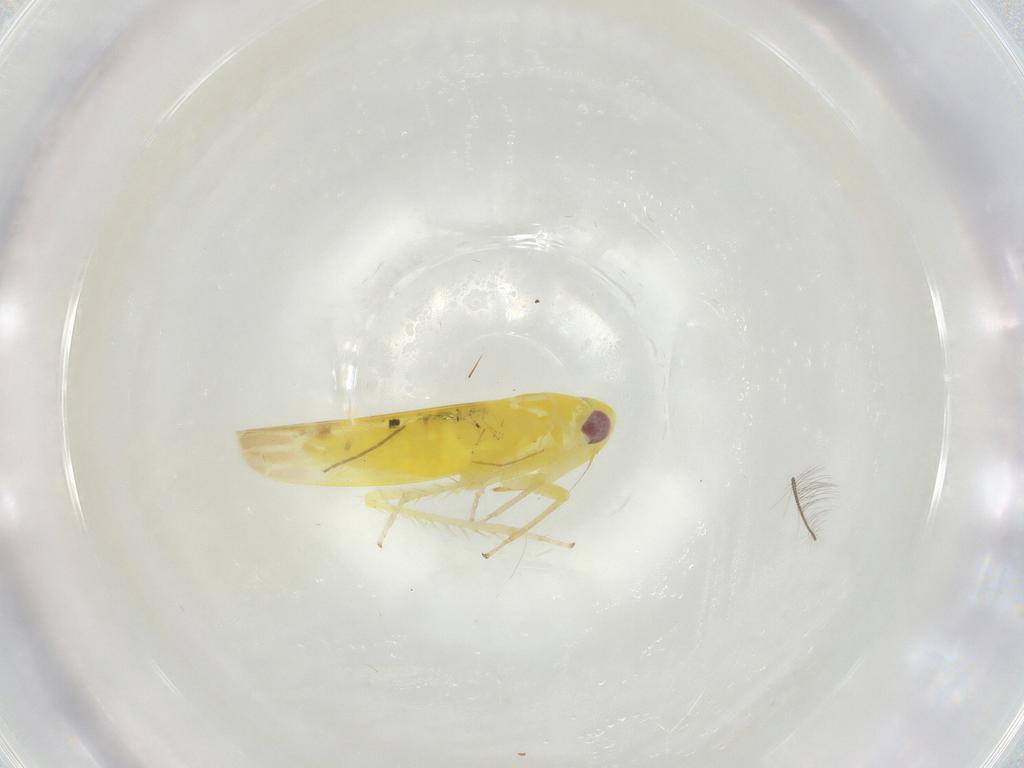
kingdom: Animalia
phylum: Arthropoda
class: Insecta
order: Hemiptera
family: Cicadellidae
